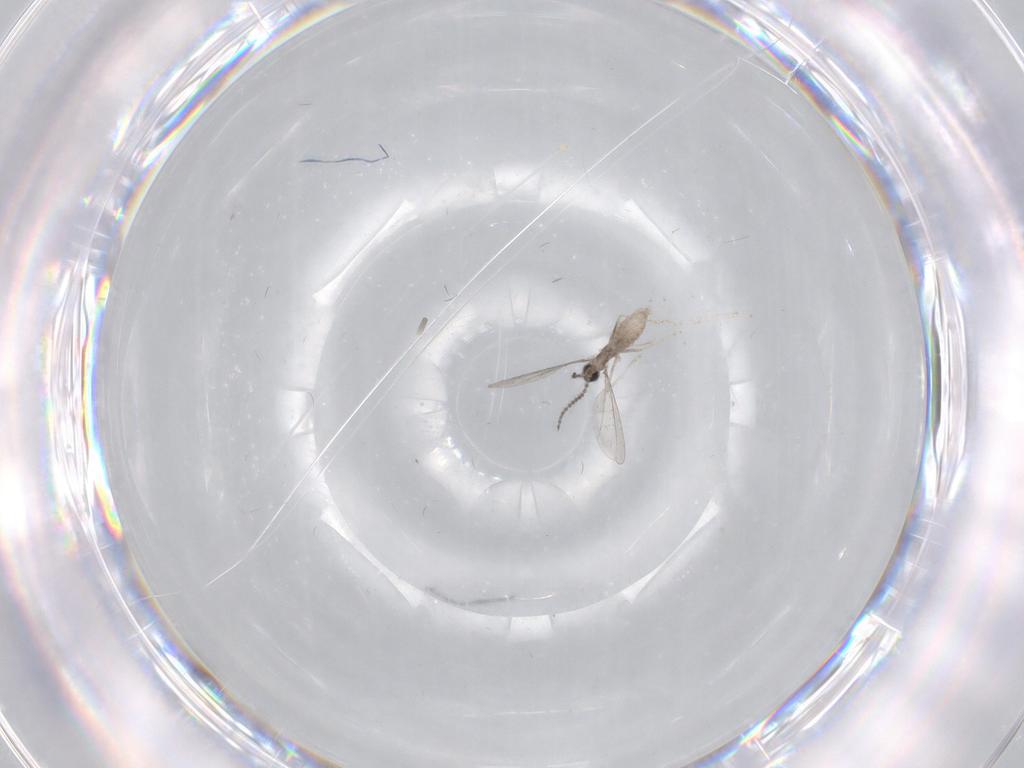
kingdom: Animalia
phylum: Arthropoda
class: Insecta
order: Diptera
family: Cecidomyiidae
